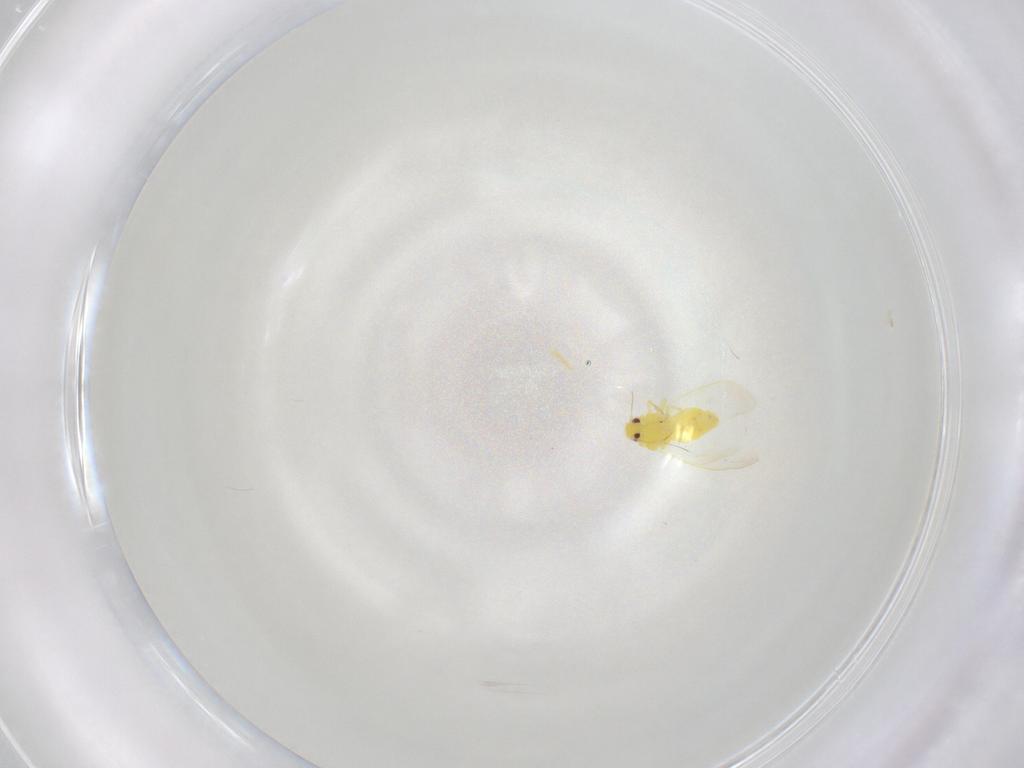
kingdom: Animalia
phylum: Arthropoda
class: Insecta
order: Hemiptera
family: Aleyrodidae
